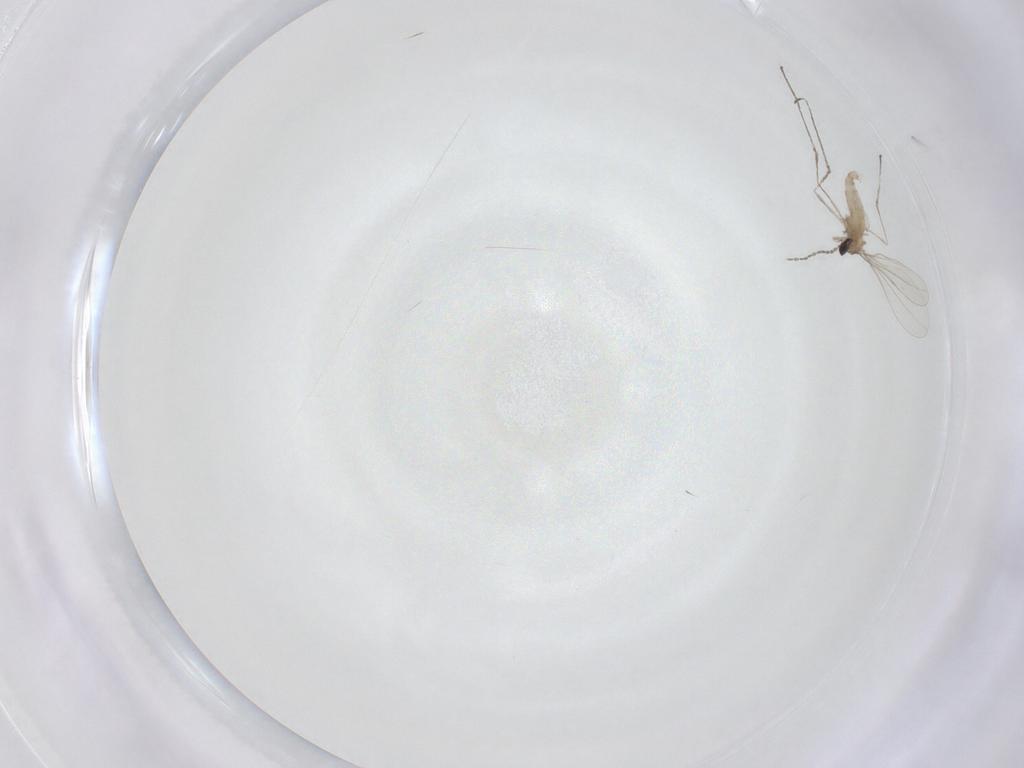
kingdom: Animalia
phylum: Arthropoda
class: Insecta
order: Diptera
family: Cecidomyiidae
